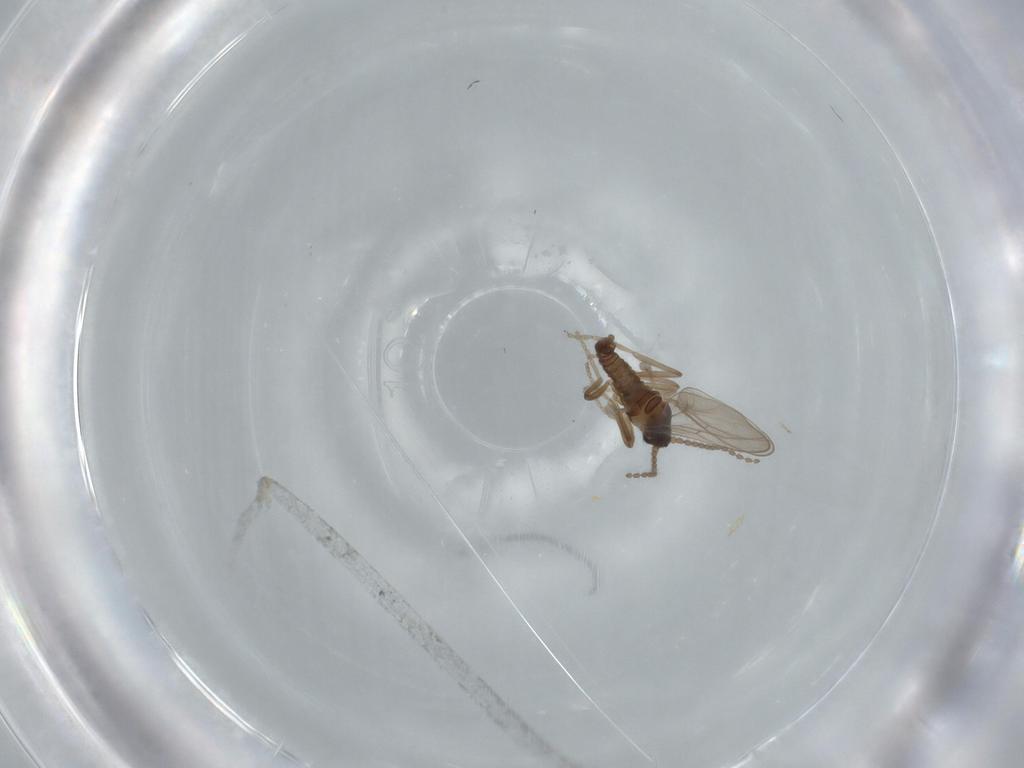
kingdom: Animalia
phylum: Arthropoda
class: Insecta
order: Diptera
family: Cecidomyiidae
